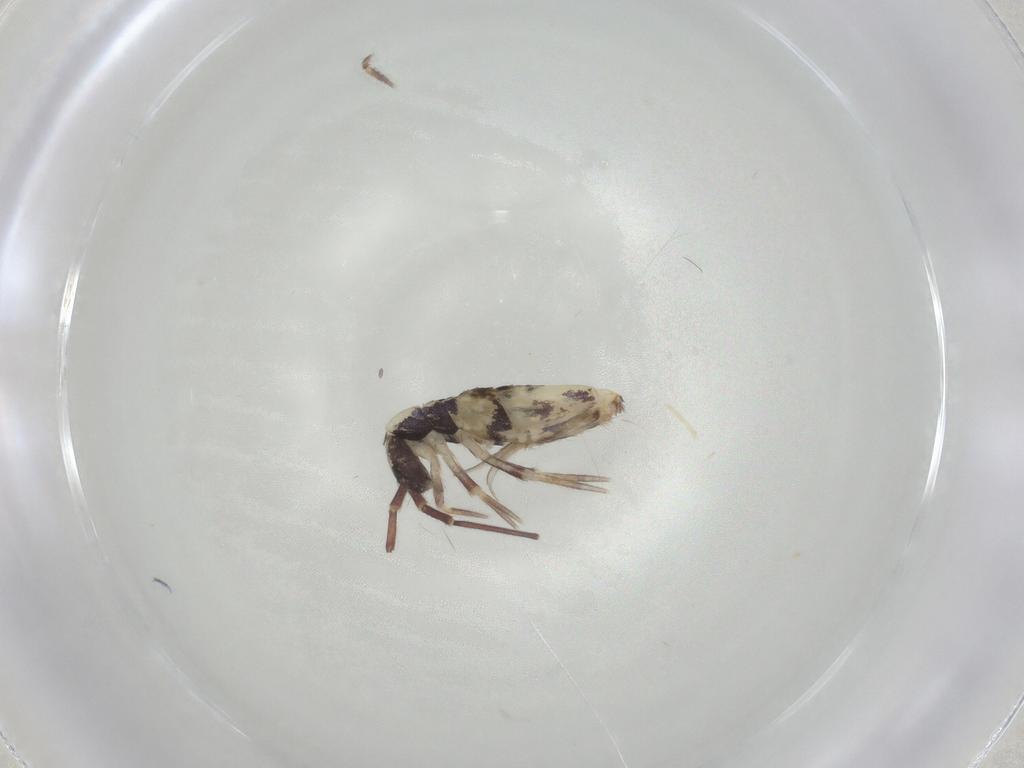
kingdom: Animalia
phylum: Arthropoda
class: Collembola
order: Entomobryomorpha
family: Entomobryidae
